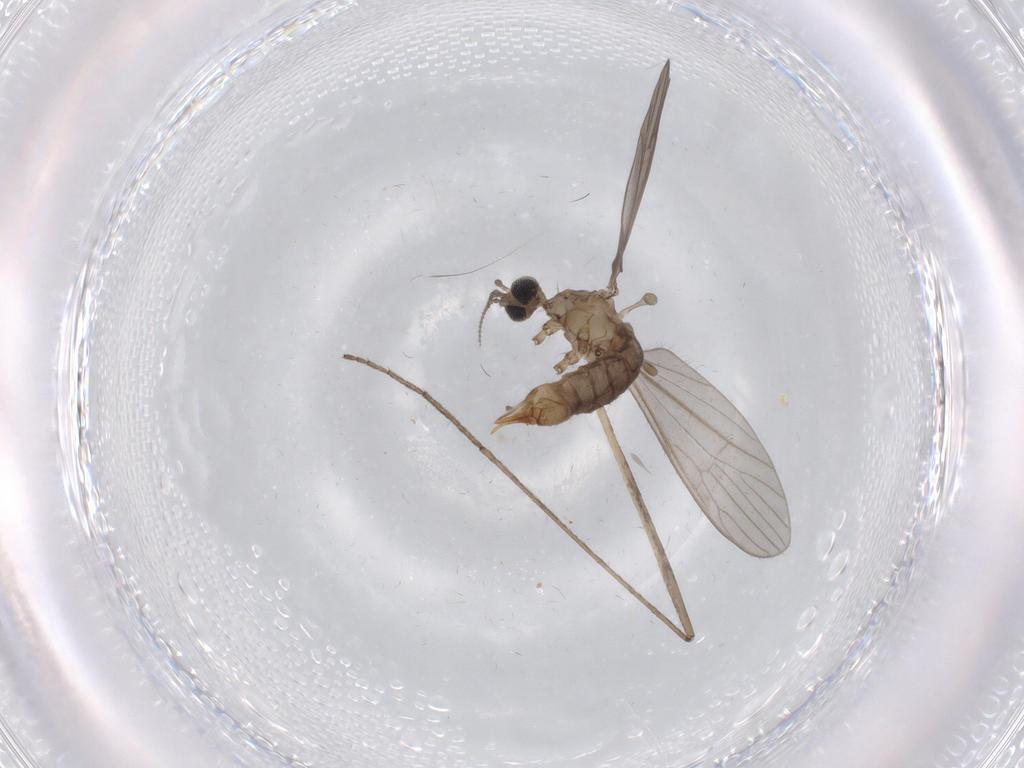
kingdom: Animalia
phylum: Arthropoda
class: Insecta
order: Diptera
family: Limoniidae
